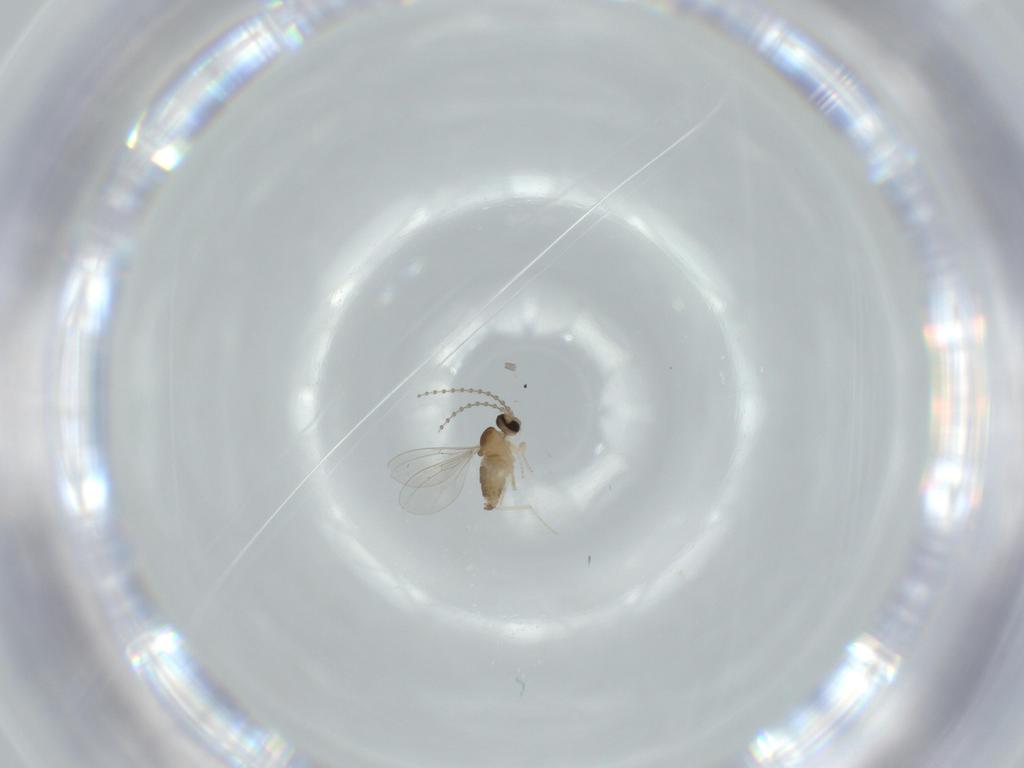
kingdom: Animalia
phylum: Arthropoda
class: Insecta
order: Diptera
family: Cecidomyiidae
